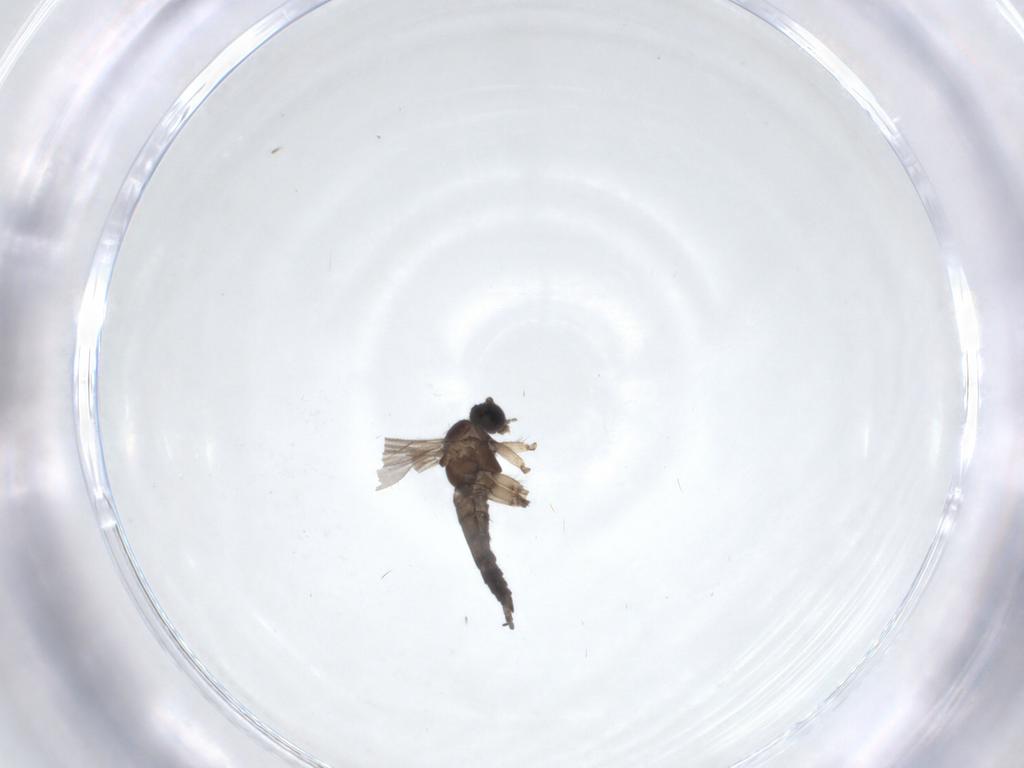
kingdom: Animalia
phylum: Arthropoda
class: Insecta
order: Diptera
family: Sciaridae
